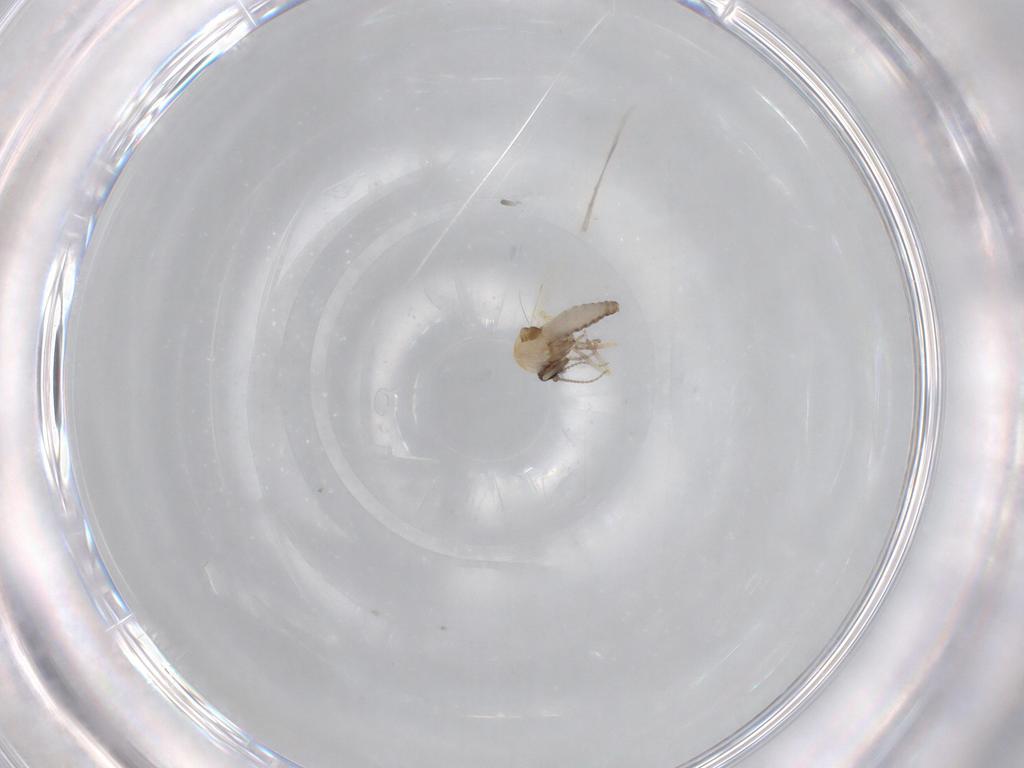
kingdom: Animalia
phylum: Arthropoda
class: Insecta
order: Diptera
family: Ceratopogonidae
